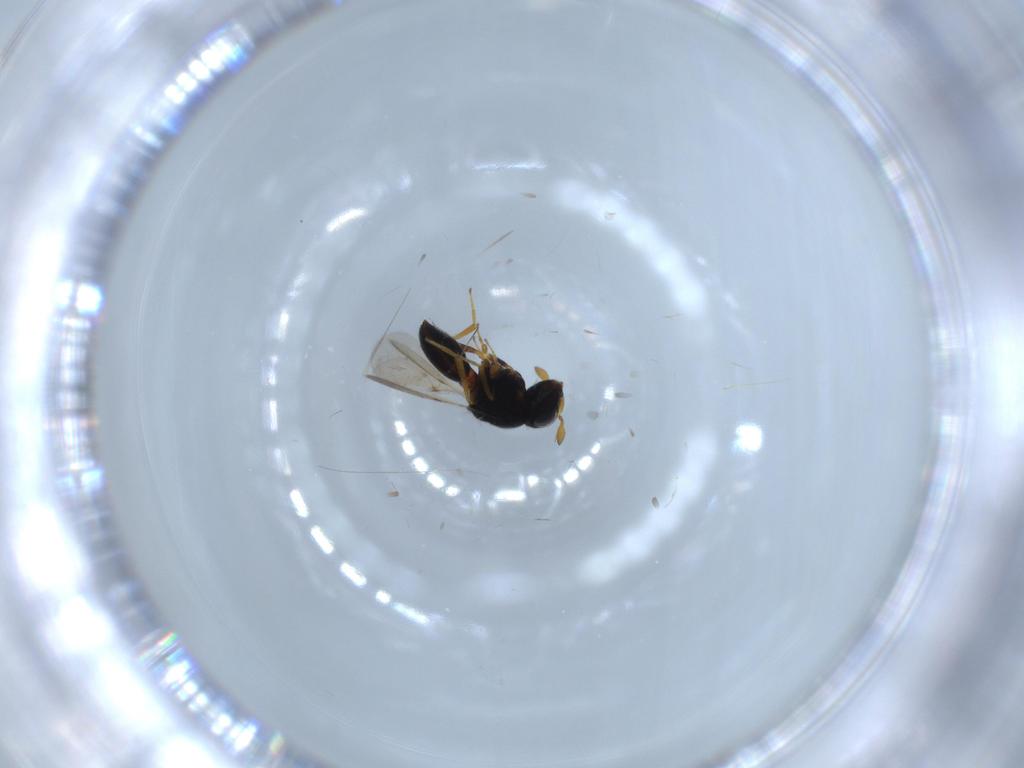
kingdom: Animalia
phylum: Arthropoda
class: Insecta
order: Hymenoptera
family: Scelionidae
